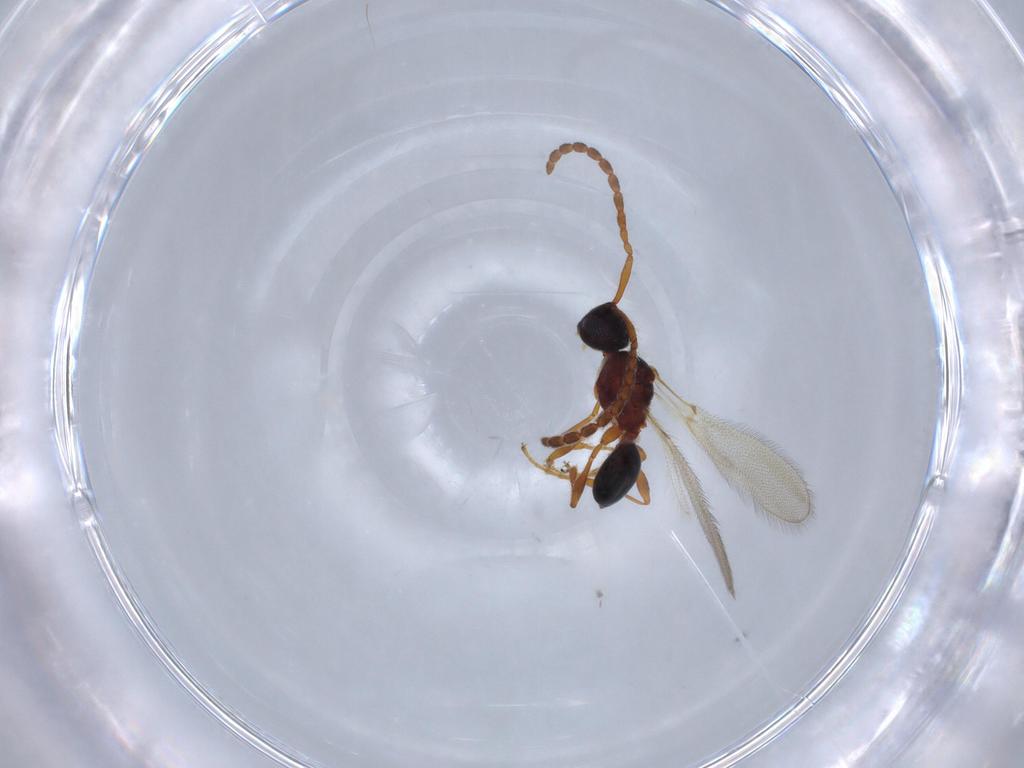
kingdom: Animalia
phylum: Arthropoda
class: Insecta
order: Hymenoptera
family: Diapriidae
